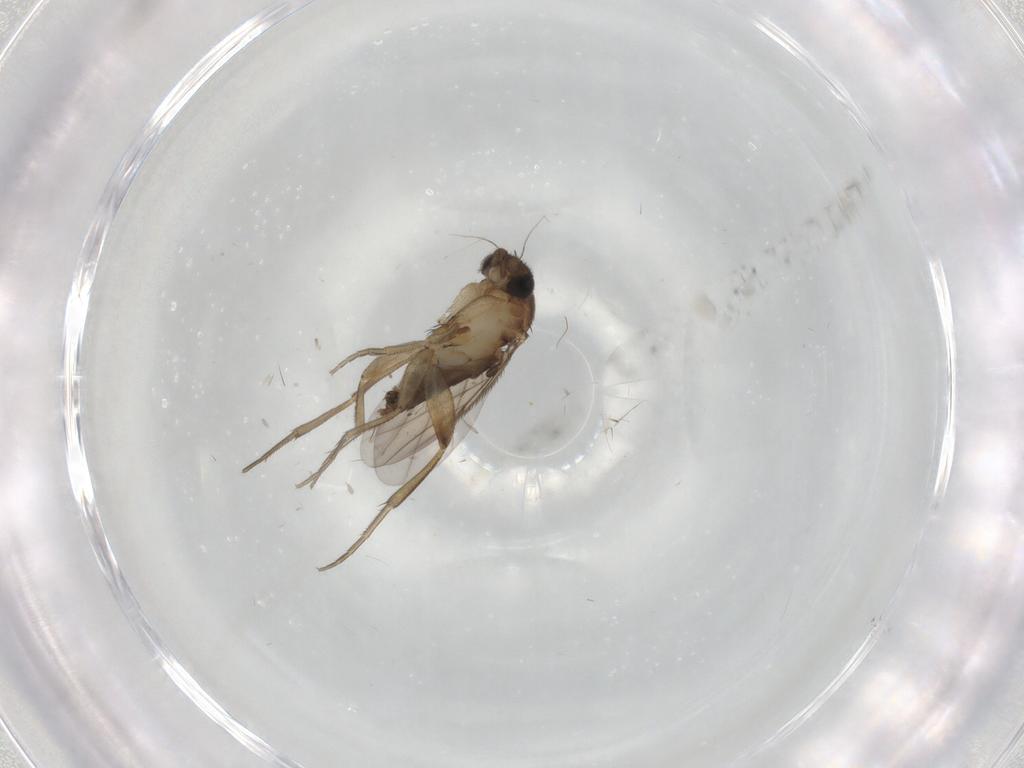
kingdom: Animalia
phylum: Arthropoda
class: Insecta
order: Diptera
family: Phoridae
